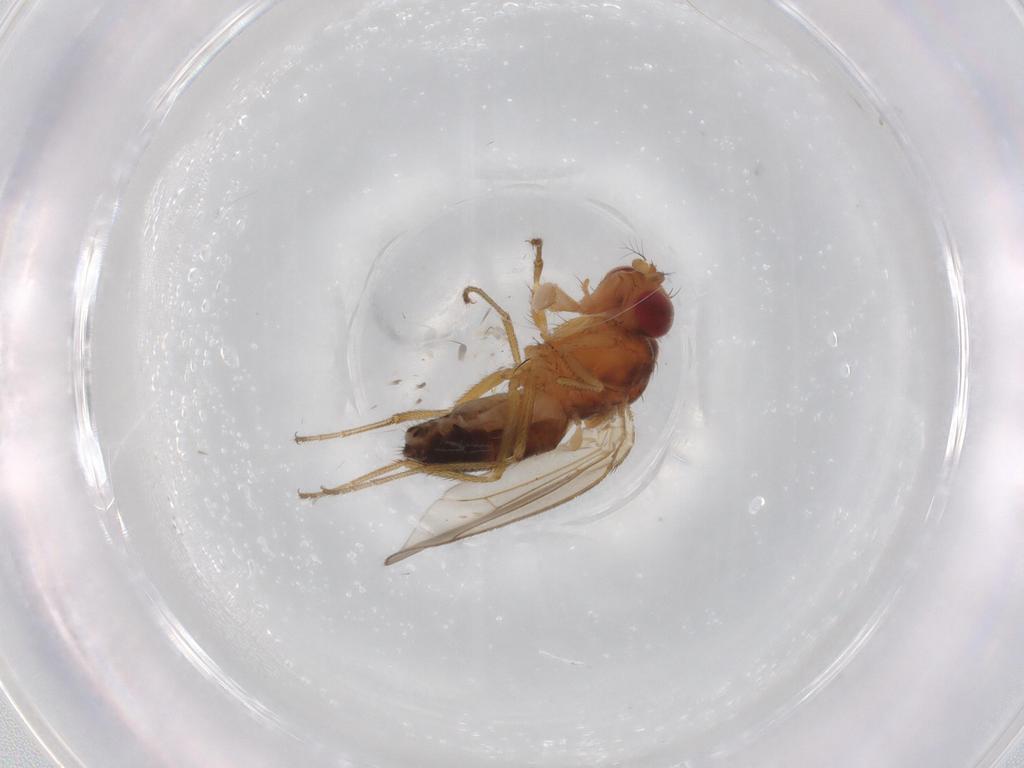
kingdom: Animalia
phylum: Arthropoda
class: Insecta
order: Diptera
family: Drosophilidae
